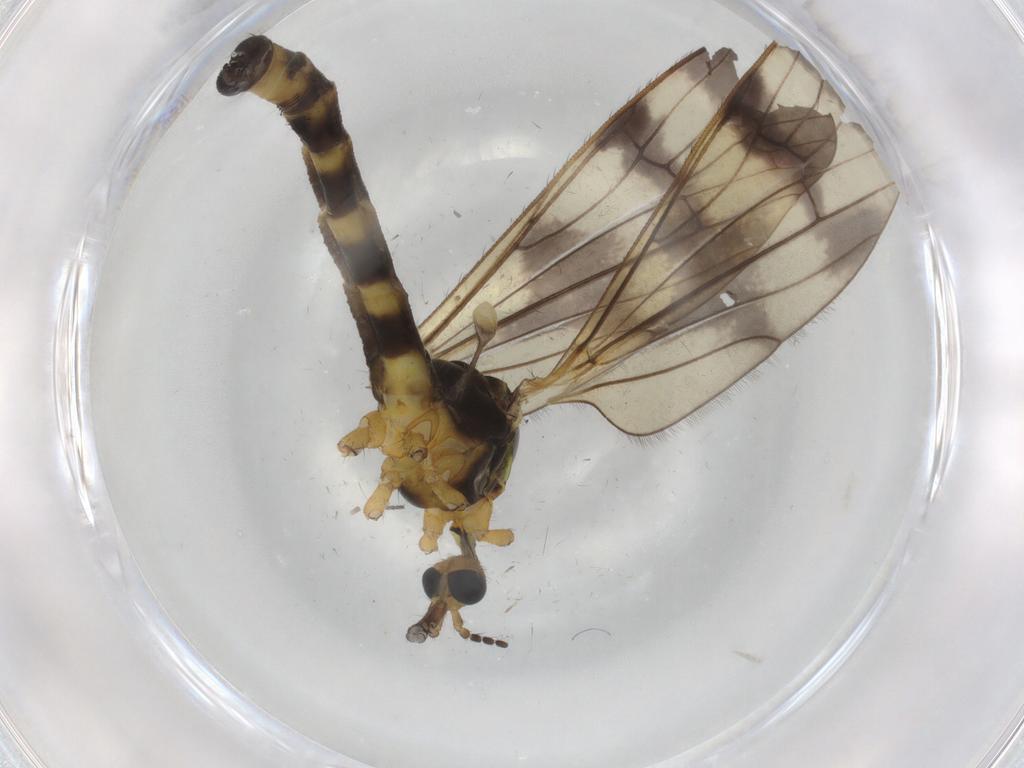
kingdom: Animalia
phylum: Arthropoda
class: Insecta
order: Diptera
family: Limoniidae
